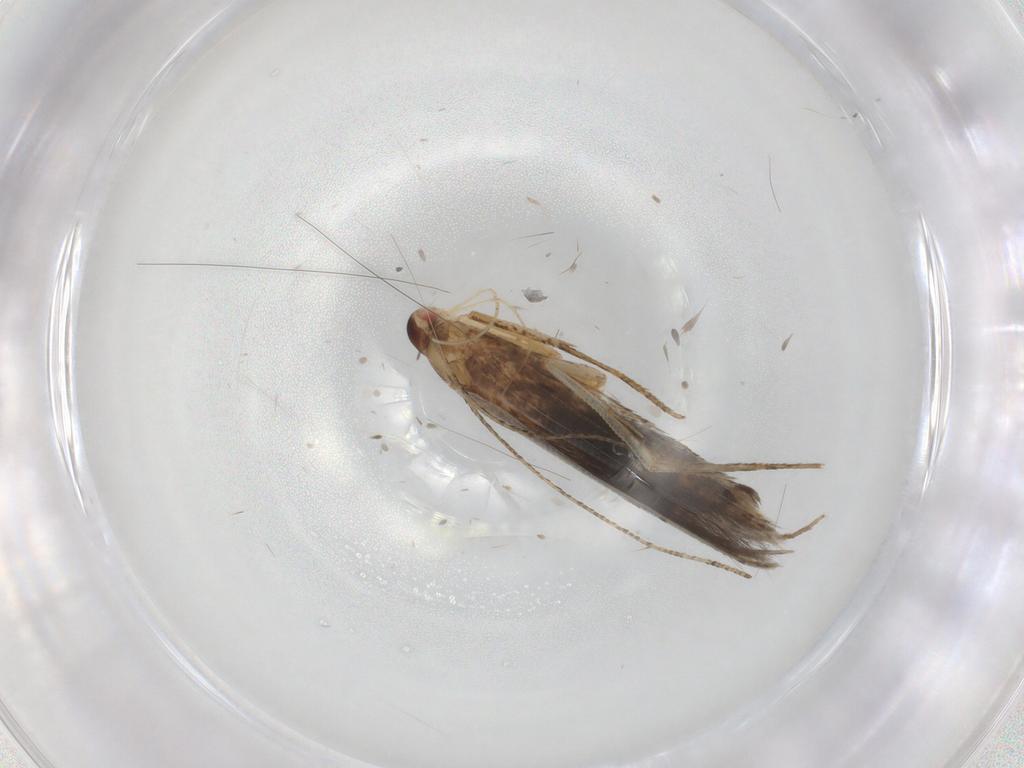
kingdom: Animalia
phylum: Arthropoda
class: Insecta
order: Lepidoptera
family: Cosmopterigidae
